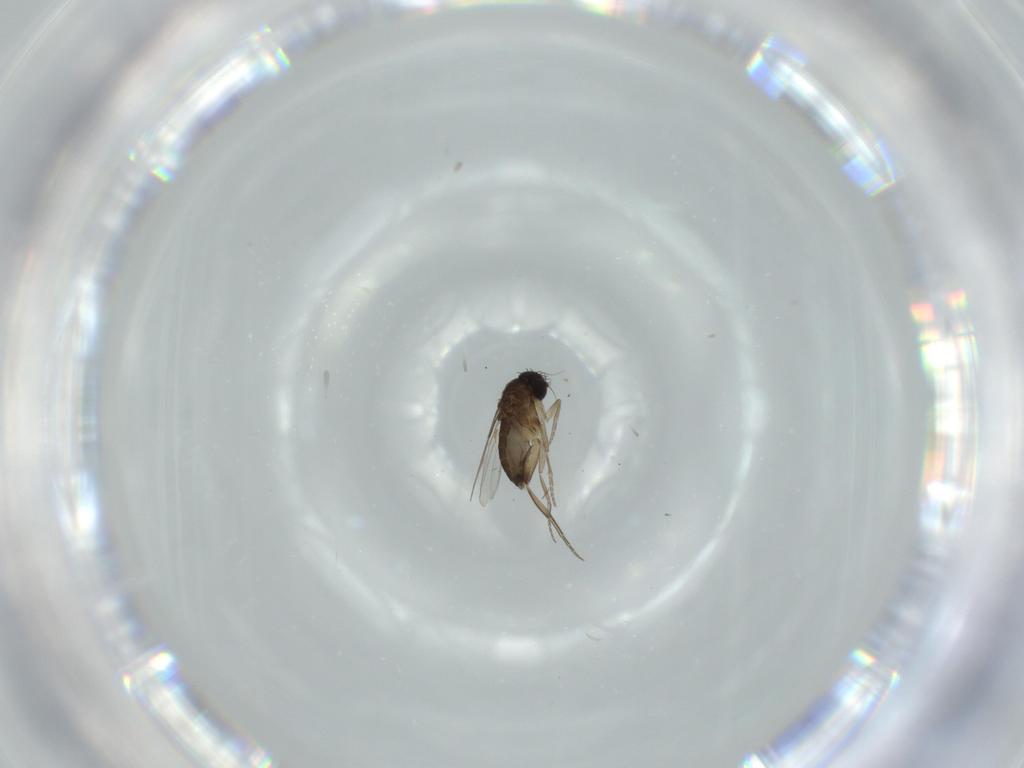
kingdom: Animalia
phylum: Arthropoda
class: Insecta
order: Diptera
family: Phoridae
